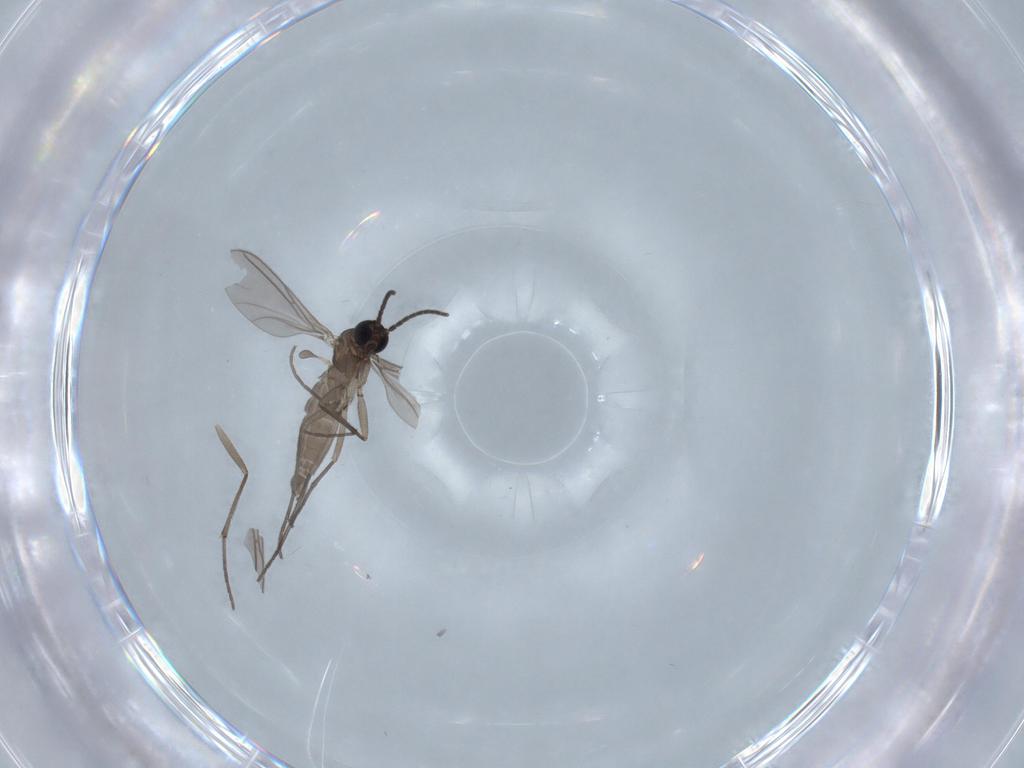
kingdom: Animalia
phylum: Arthropoda
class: Insecta
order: Diptera
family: Sciaridae
